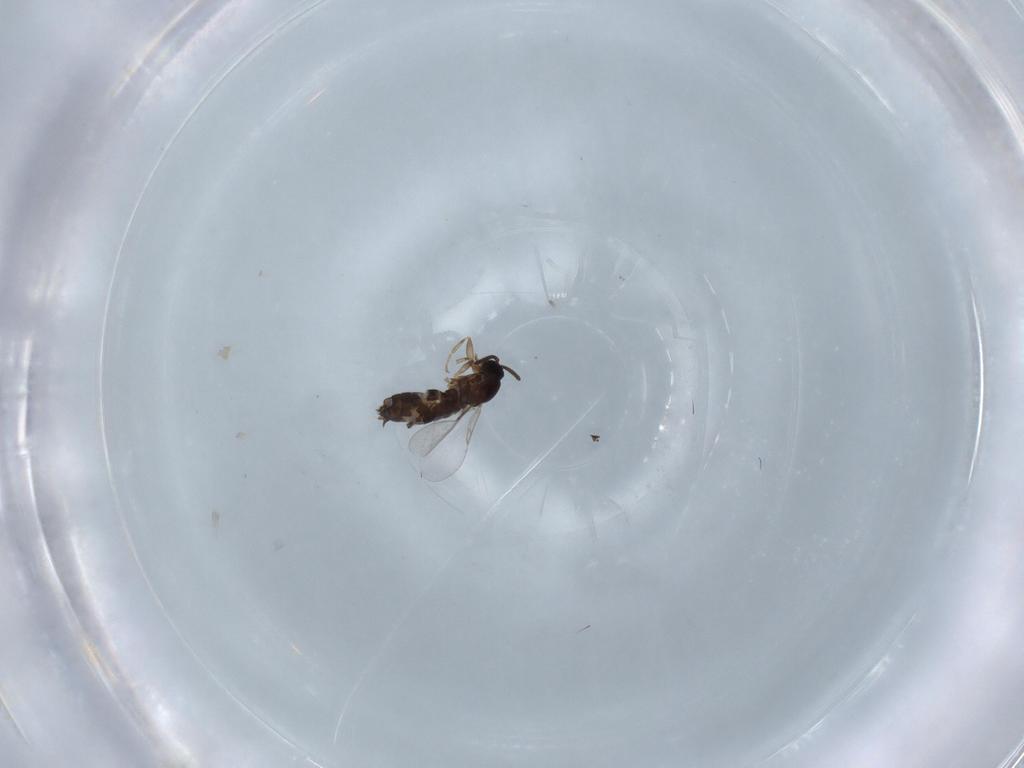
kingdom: Animalia
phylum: Arthropoda
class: Insecta
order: Diptera
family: Scatopsidae
